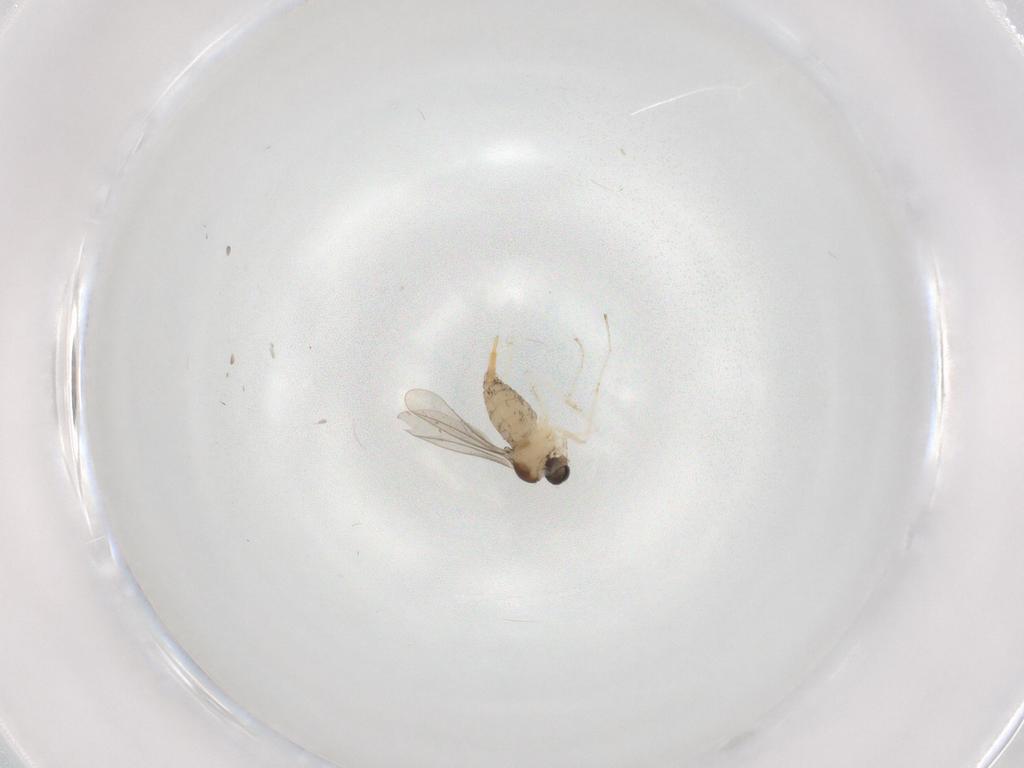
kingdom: Animalia
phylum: Arthropoda
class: Insecta
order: Diptera
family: Cecidomyiidae
